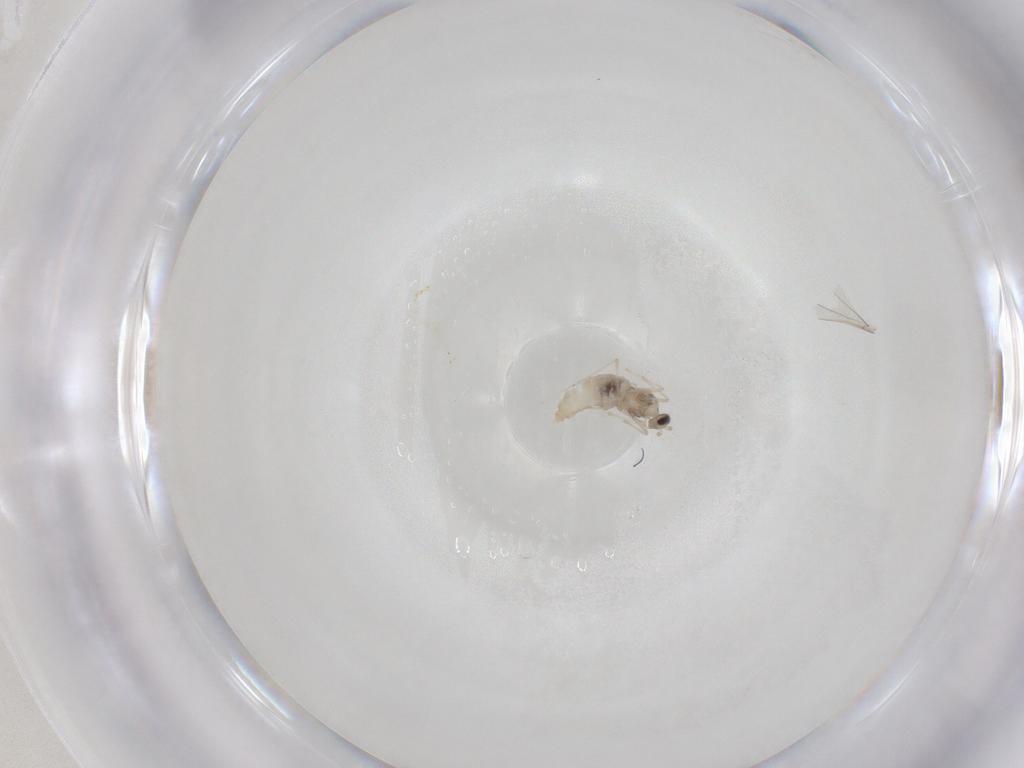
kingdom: Animalia
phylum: Arthropoda
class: Insecta
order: Diptera
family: Cecidomyiidae
